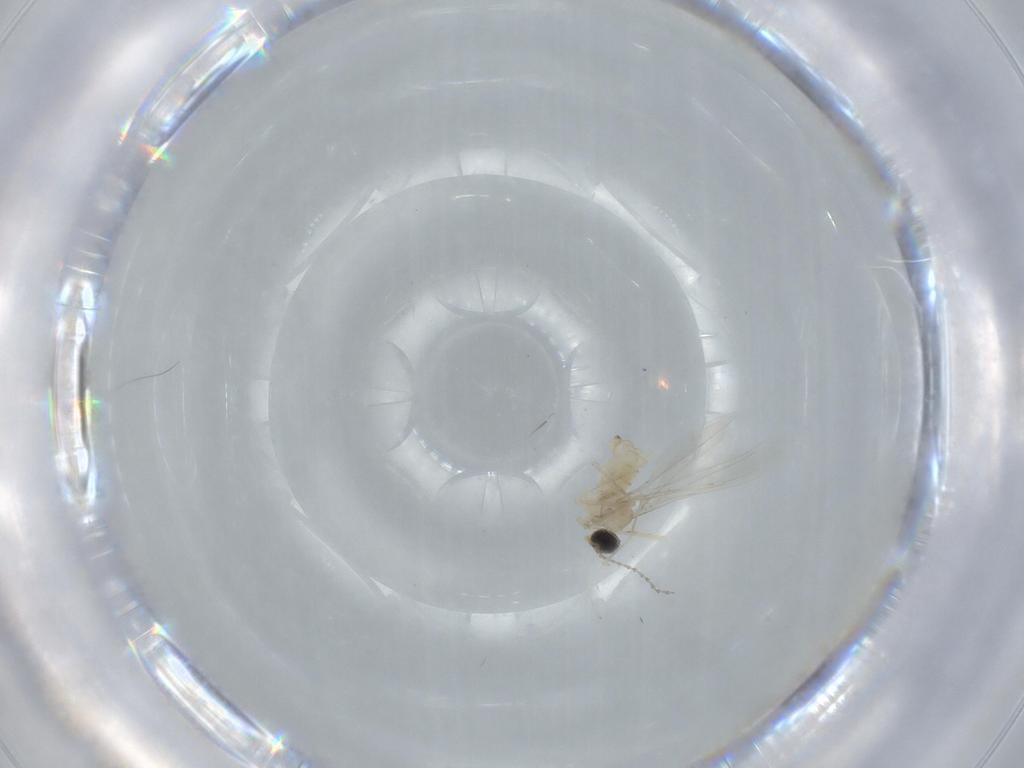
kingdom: Animalia
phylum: Arthropoda
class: Insecta
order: Diptera
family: Cecidomyiidae
